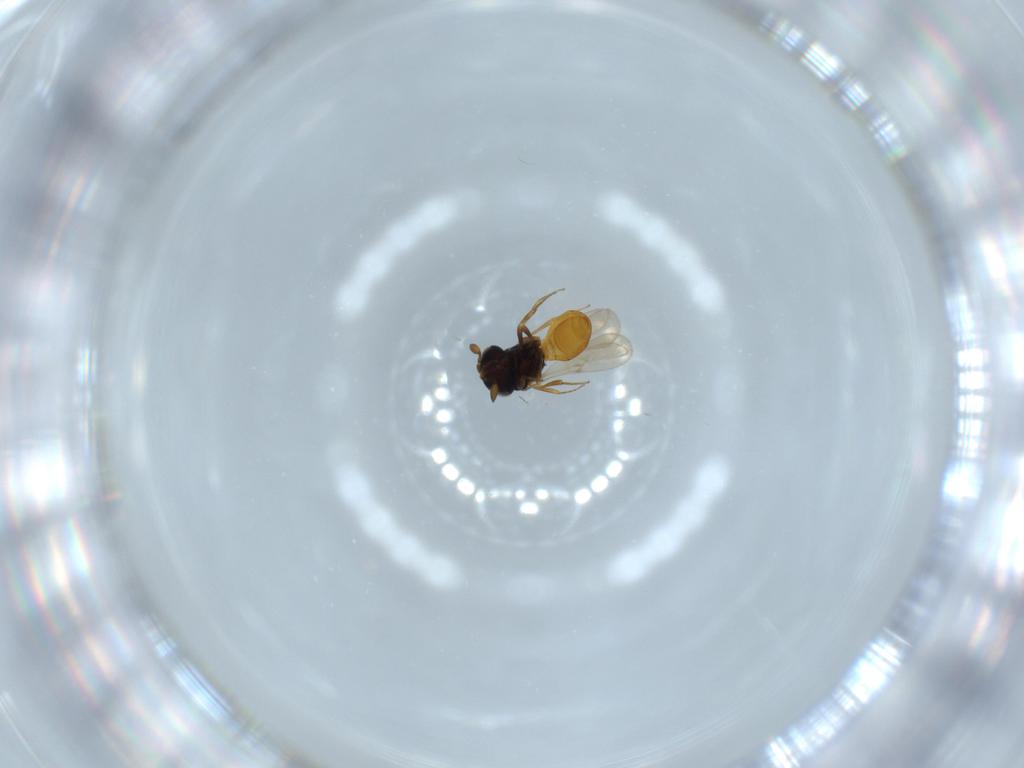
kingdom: Animalia
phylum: Arthropoda
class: Insecta
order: Hymenoptera
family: Scelionidae
